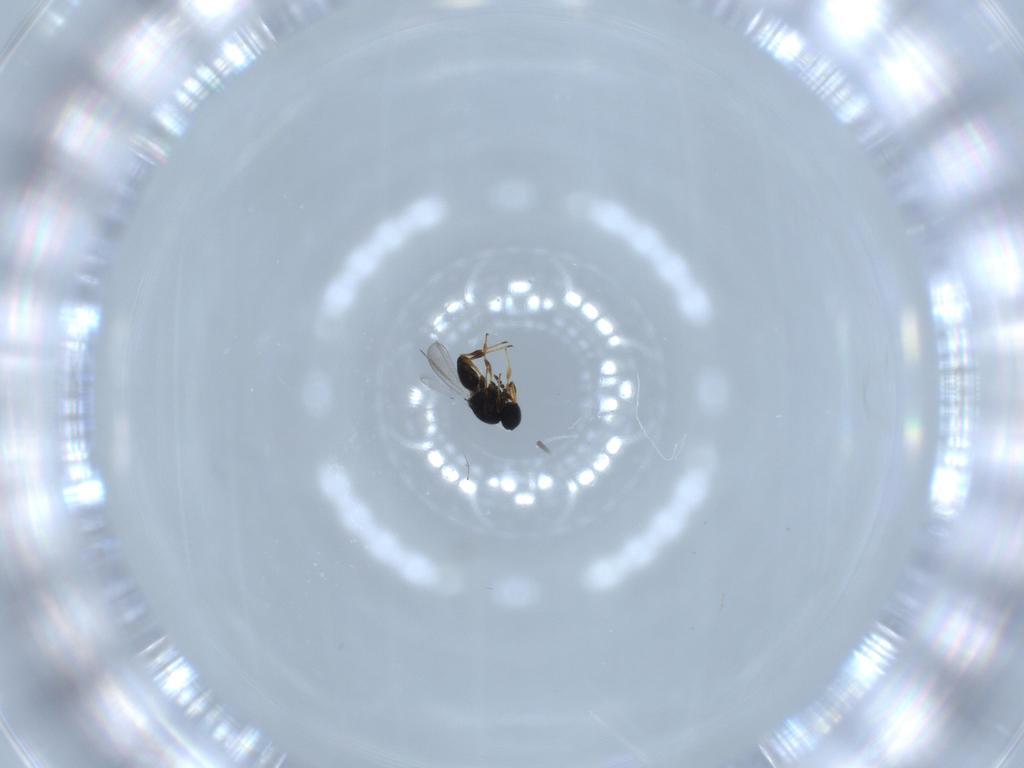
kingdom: Animalia
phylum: Arthropoda
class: Insecta
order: Hymenoptera
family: Platygastridae
